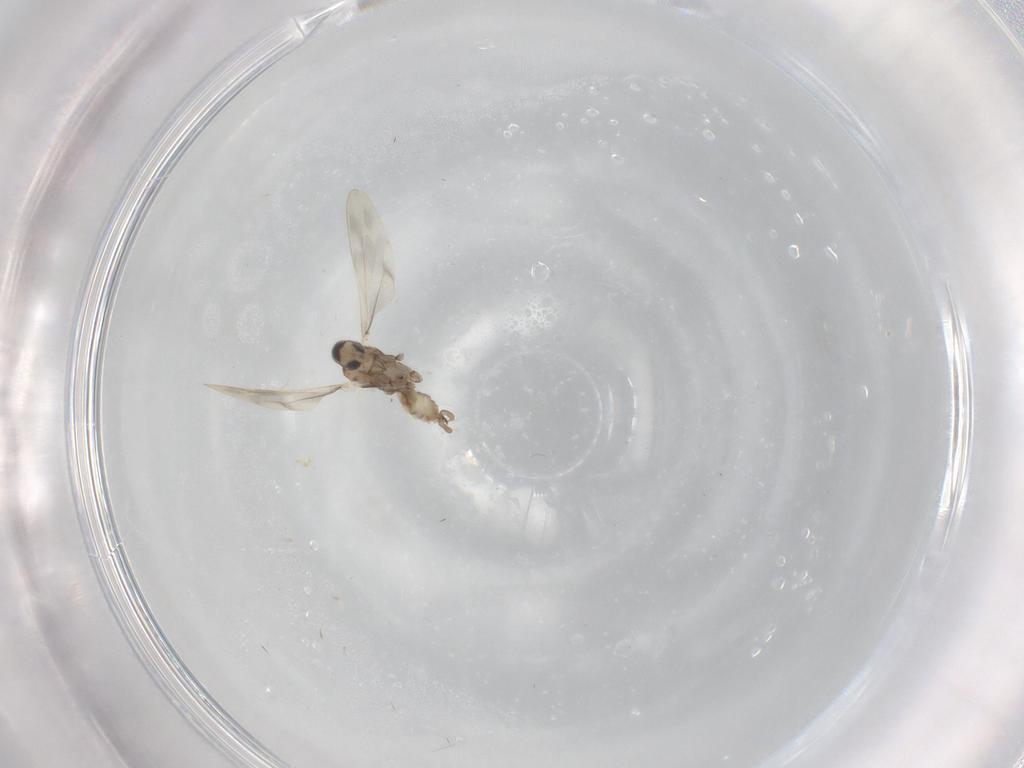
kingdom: Animalia
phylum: Arthropoda
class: Insecta
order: Diptera
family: Cecidomyiidae
